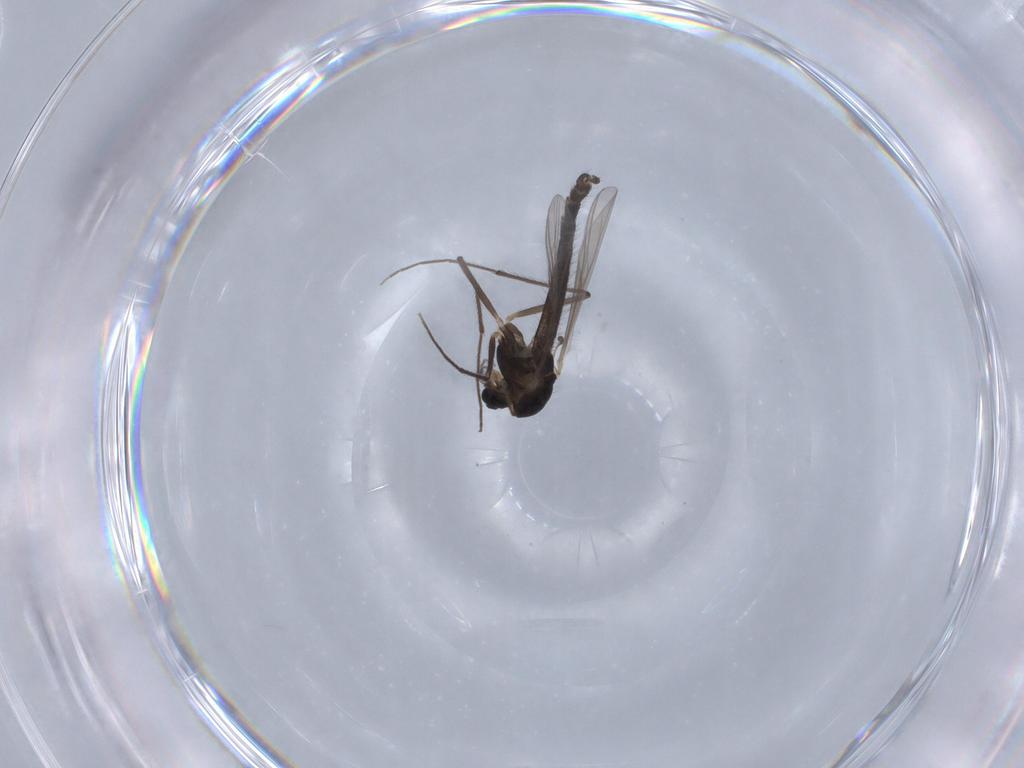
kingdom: Animalia
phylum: Arthropoda
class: Insecta
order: Diptera
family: Chironomidae
